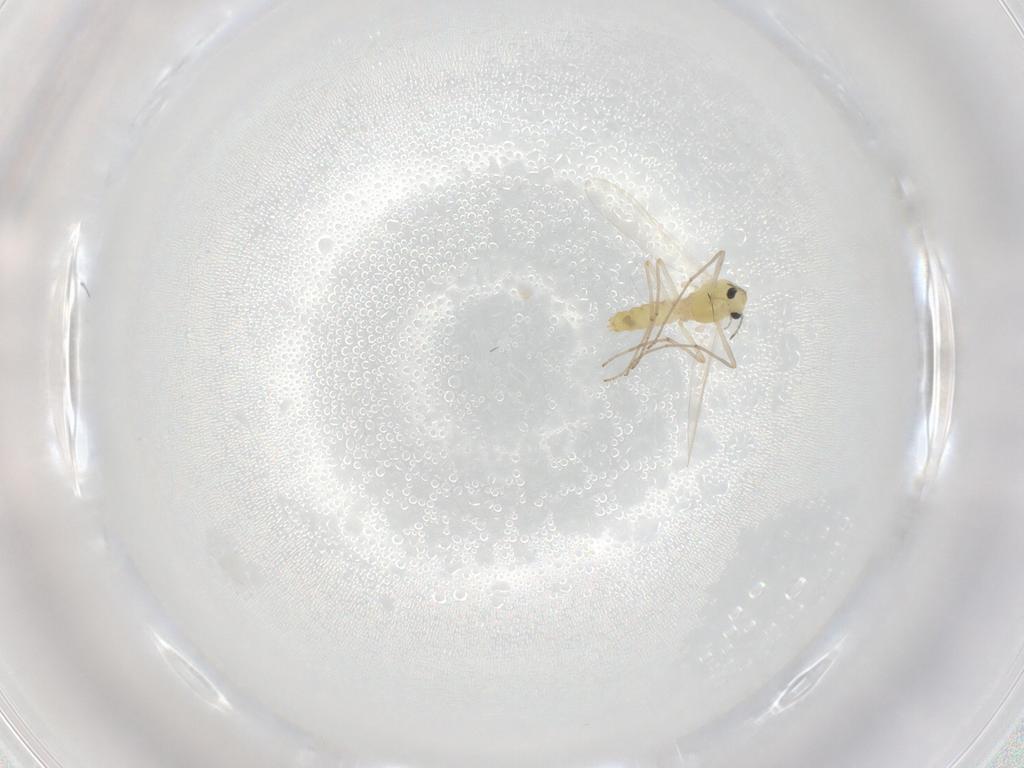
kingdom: Animalia
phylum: Arthropoda
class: Insecta
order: Diptera
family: Chironomidae
